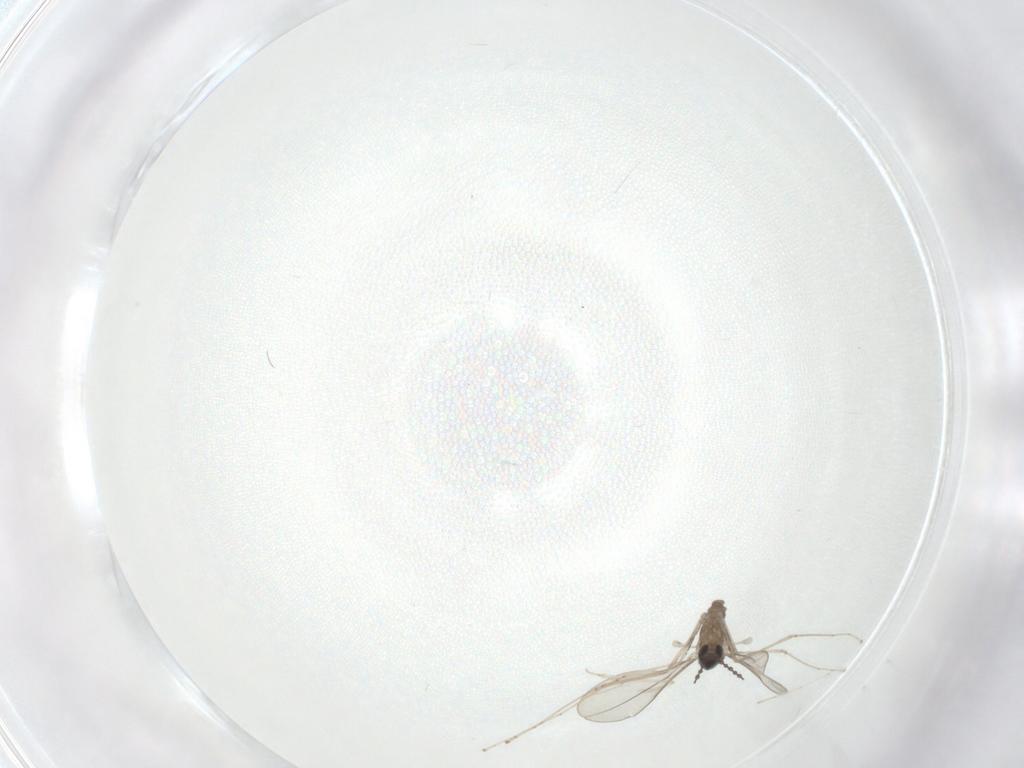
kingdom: Animalia
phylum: Arthropoda
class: Insecta
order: Diptera
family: Cecidomyiidae
